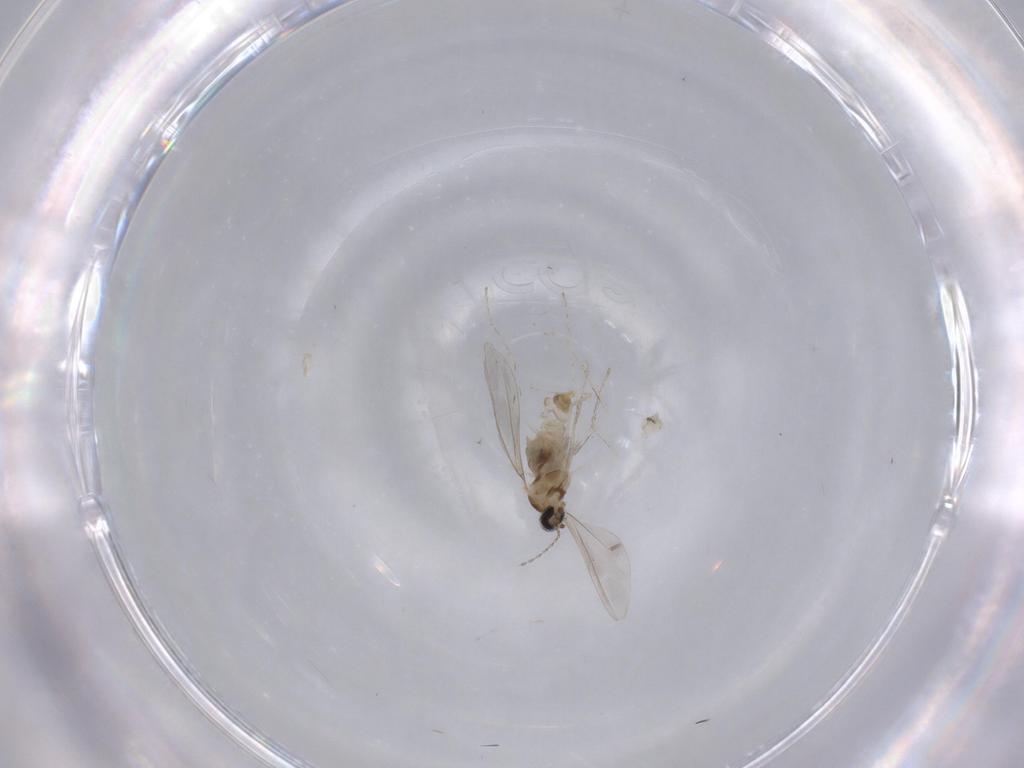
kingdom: Animalia
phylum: Arthropoda
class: Insecta
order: Diptera
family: Cecidomyiidae
